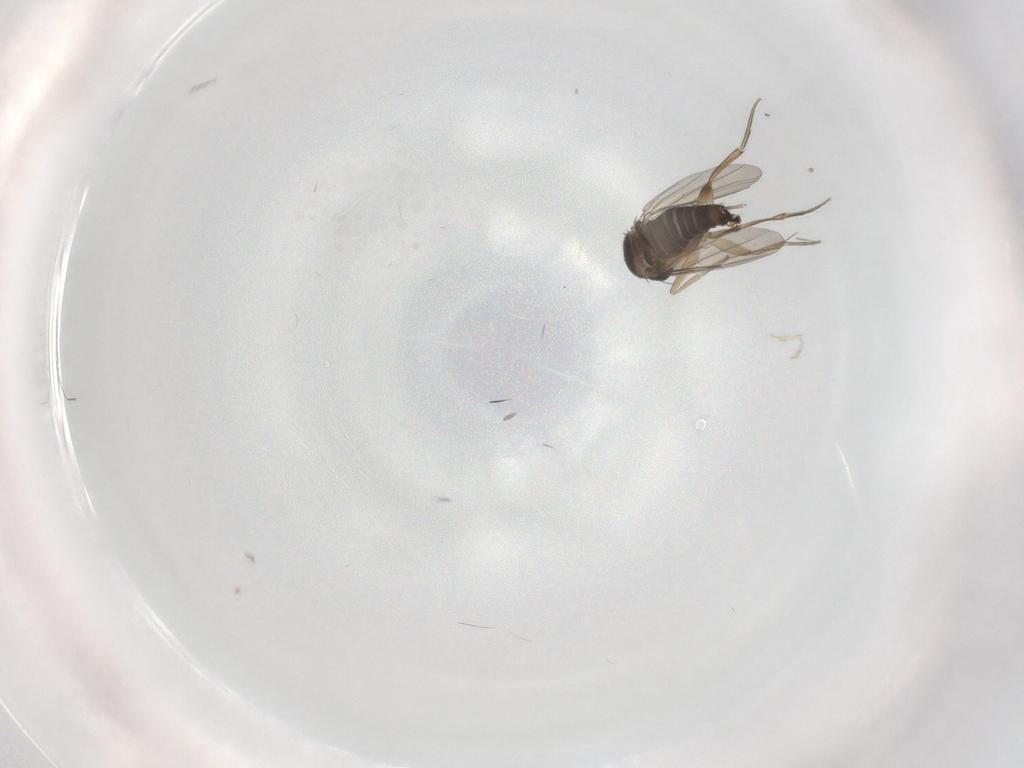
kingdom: Animalia
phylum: Arthropoda
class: Insecta
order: Diptera
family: Phoridae
